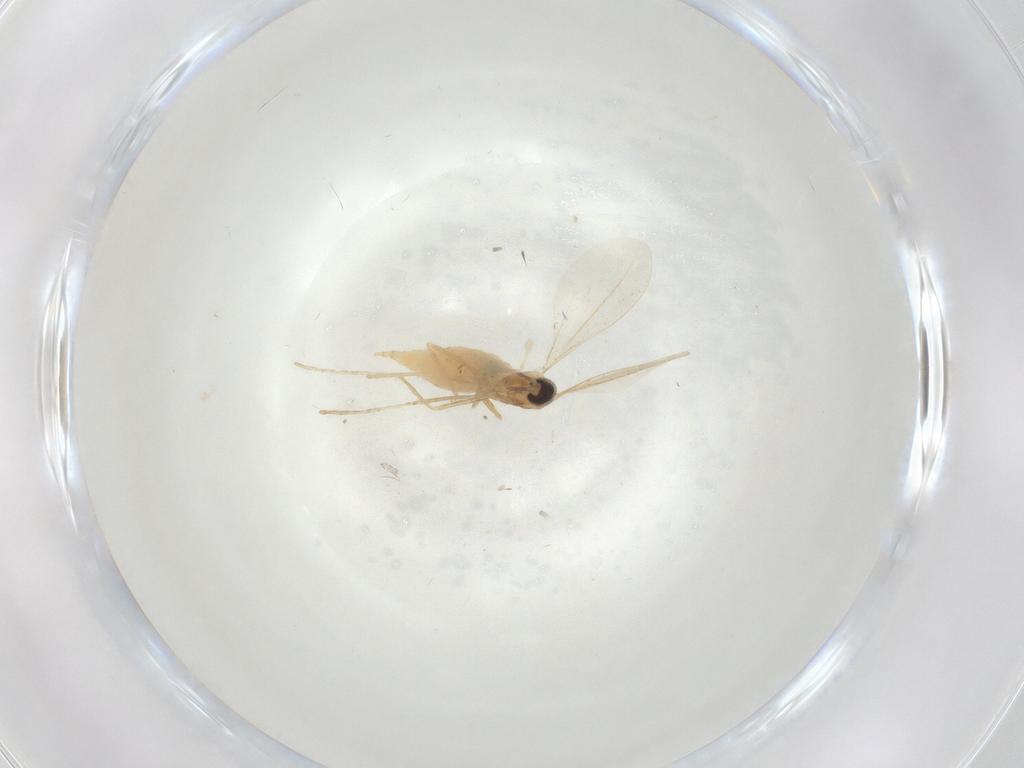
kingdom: Animalia
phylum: Arthropoda
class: Insecta
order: Diptera
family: Cecidomyiidae
